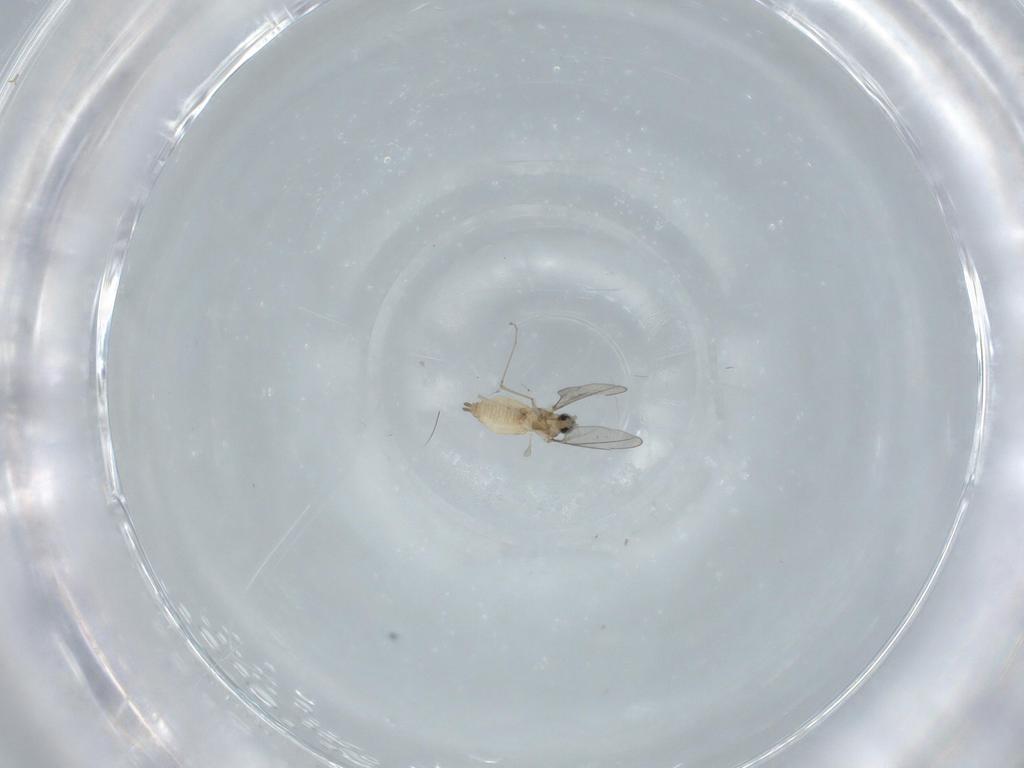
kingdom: Animalia
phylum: Arthropoda
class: Insecta
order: Diptera
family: Cecidomyiidae
